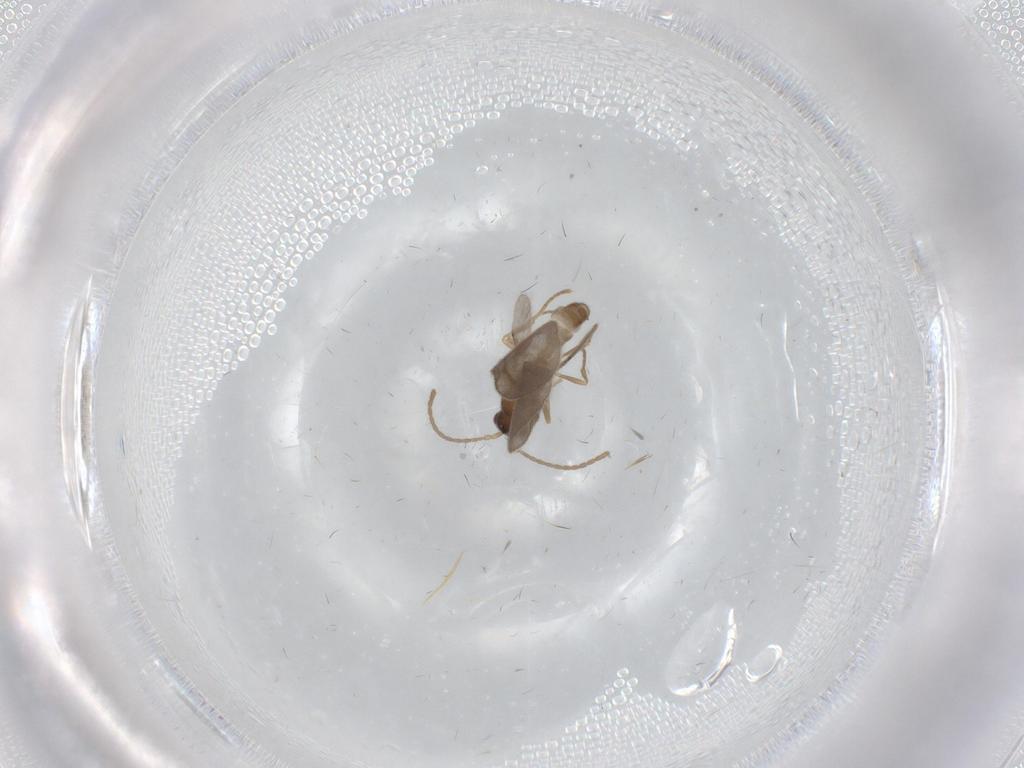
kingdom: Animalia
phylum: Arthropoda
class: Insecta
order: Hymenoptera
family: Formicidae
